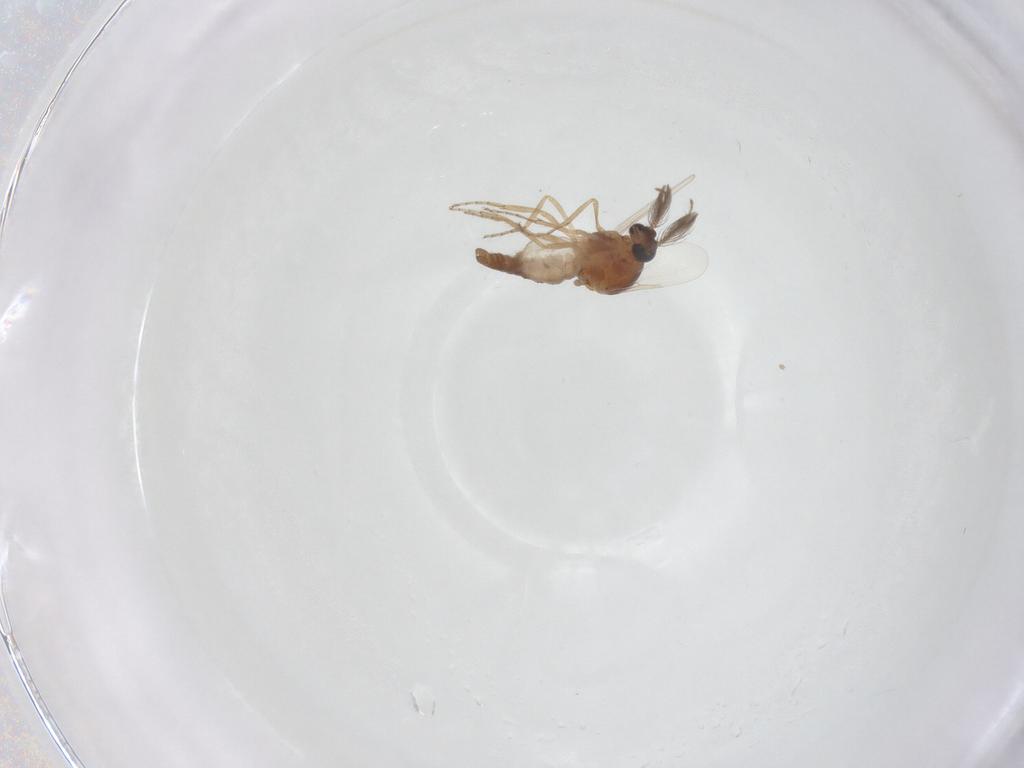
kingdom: Animalia
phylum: Arthropoda
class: Insecta
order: Diptera
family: Ceratopogonidae
